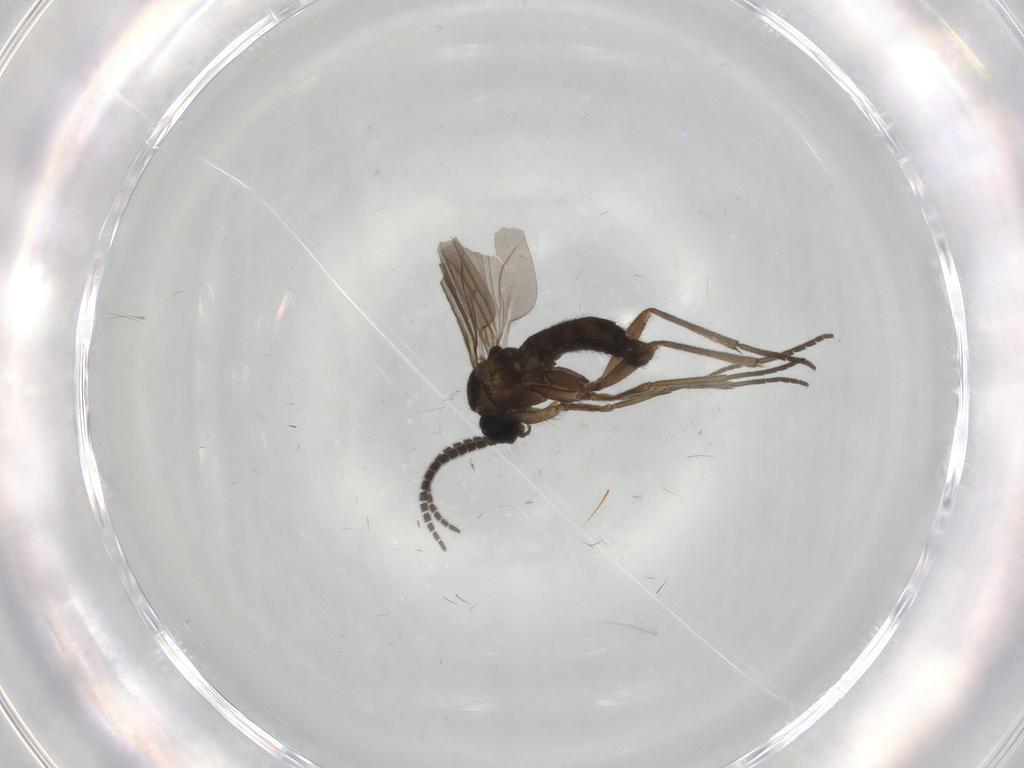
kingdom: Animalia
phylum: Arthropoda
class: Insecta
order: Diptera
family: Sciaridae
